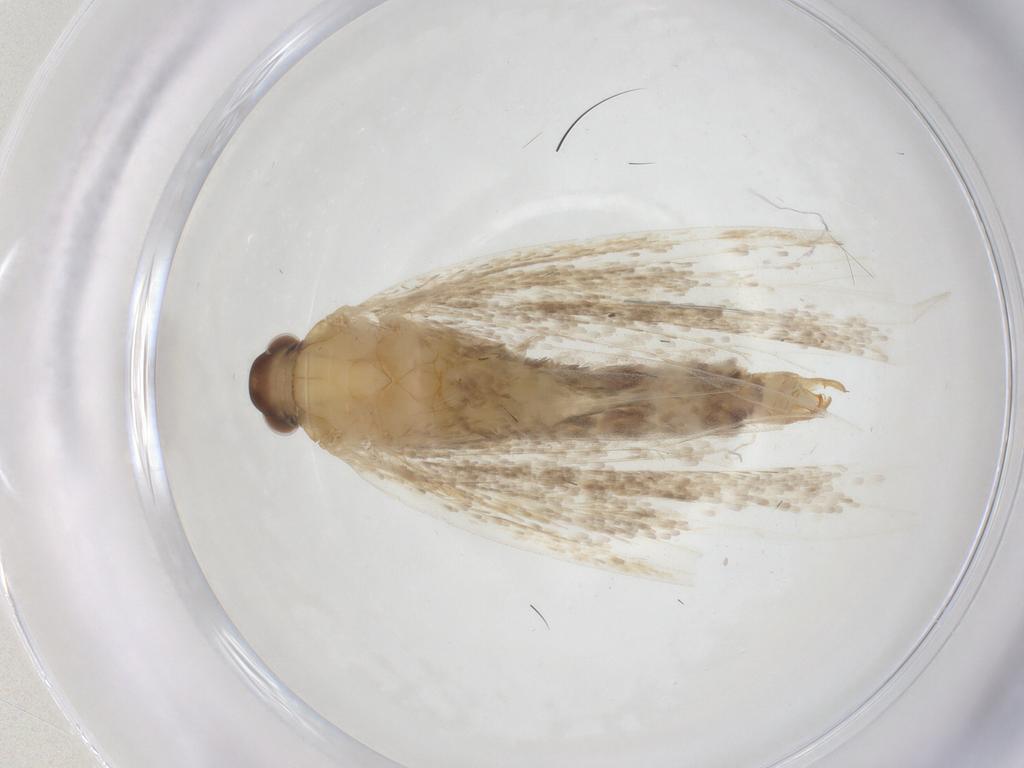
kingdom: Animalia
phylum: Arthropoda
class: Insecta
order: Lepidoptera
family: Lecithoceridae
